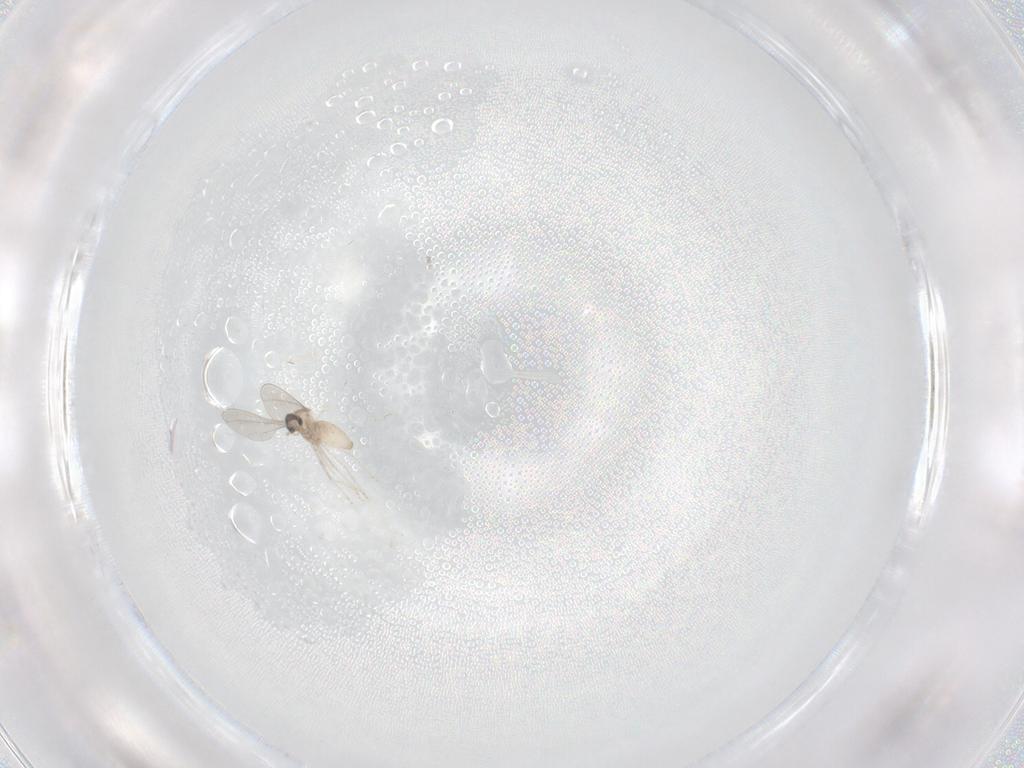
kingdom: Animalia
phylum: Arthropoda
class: Insecta
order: Diptera
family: Cecidomyiidae
